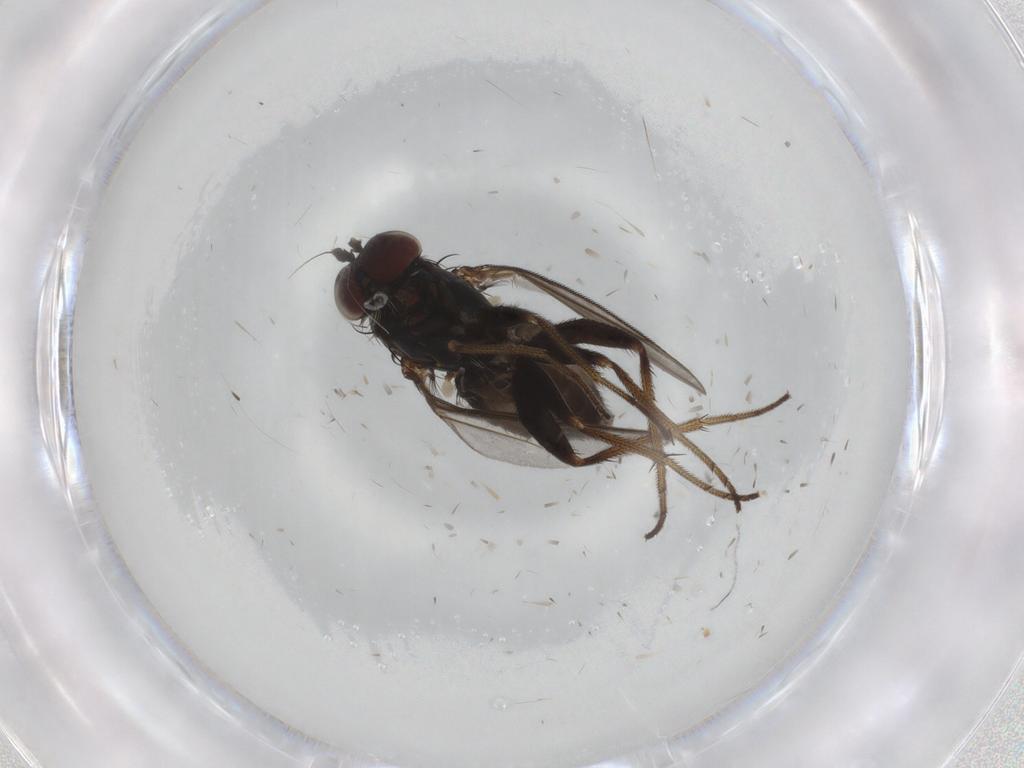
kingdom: Animalia
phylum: Arthropoda
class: Insecta
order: Diptera
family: Dolichopodidae
